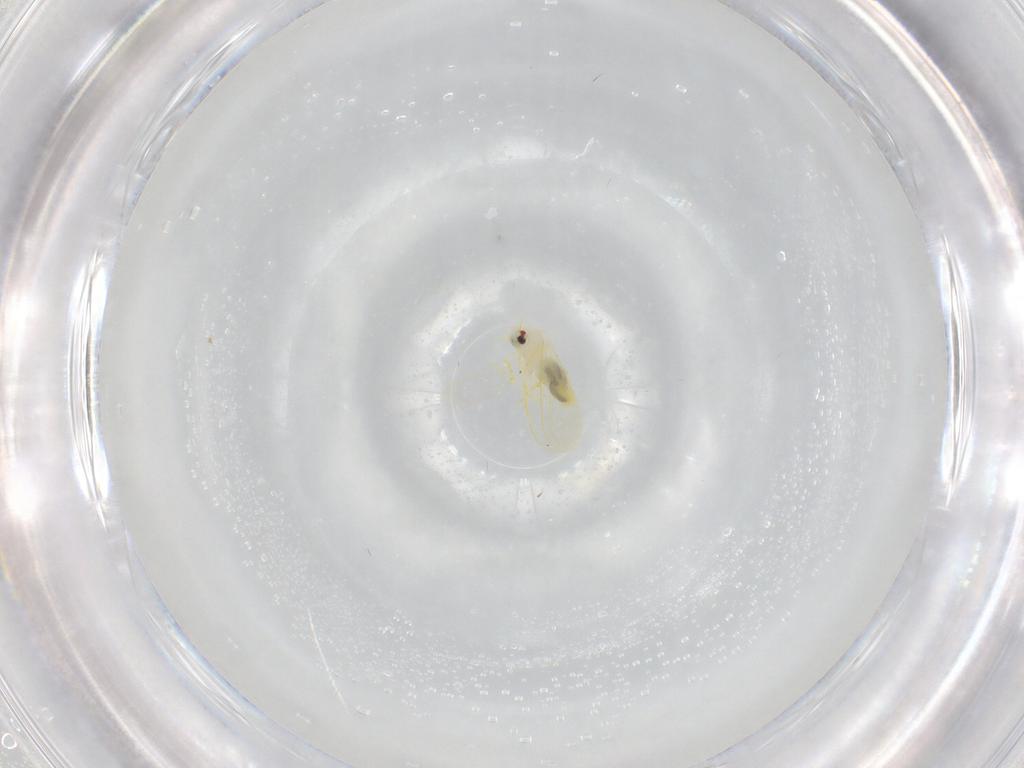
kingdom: Animalia
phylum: Arthropoda
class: Insecta
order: Hemiptera
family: Aleyrodidae
